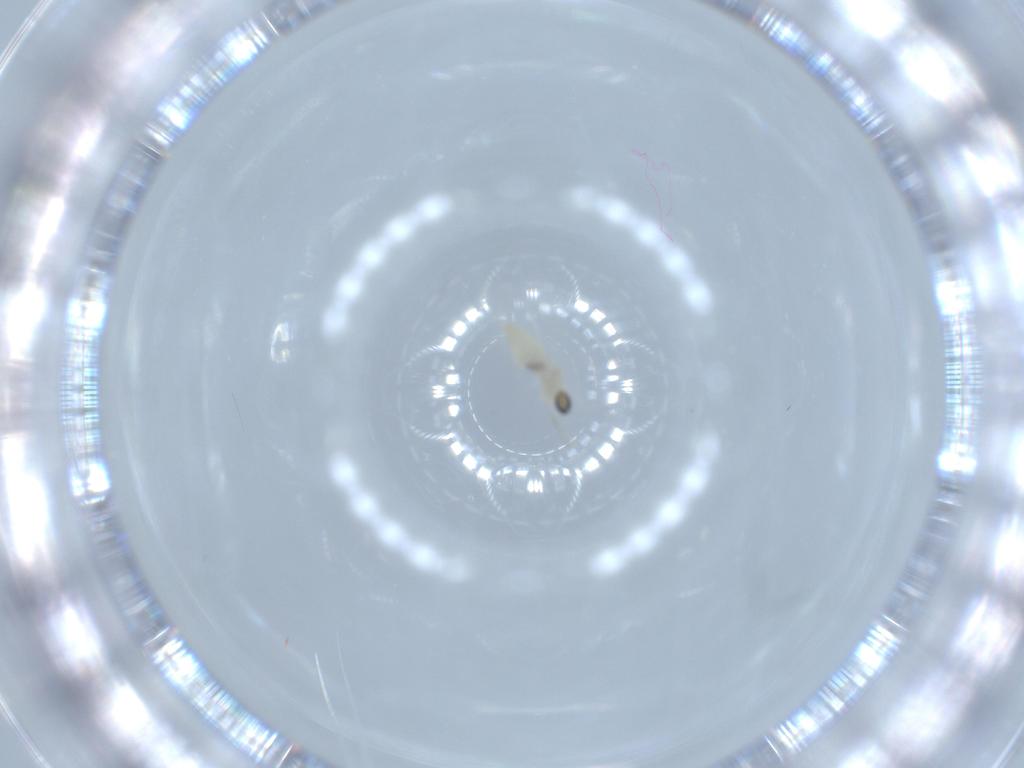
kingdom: Animalia
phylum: Arthropoda
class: Insecta
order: Diptera
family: Cecidomyiidae
